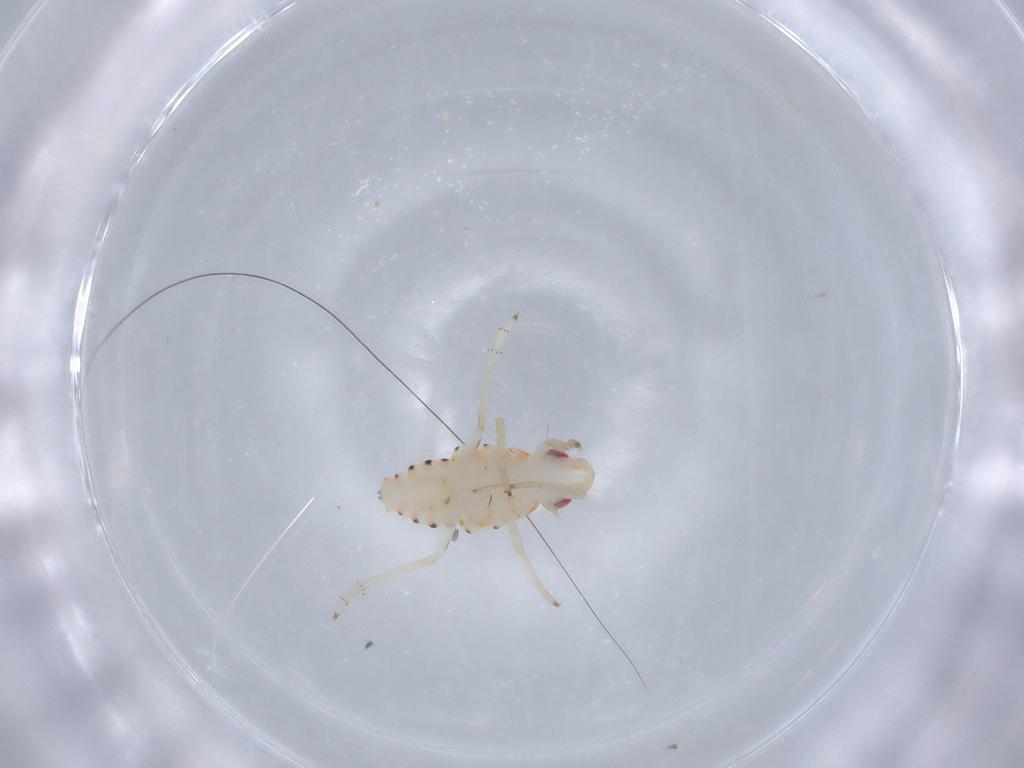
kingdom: Animalia
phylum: Arthropoda
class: Insecta
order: Hemiptera
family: Tropiduchidae
